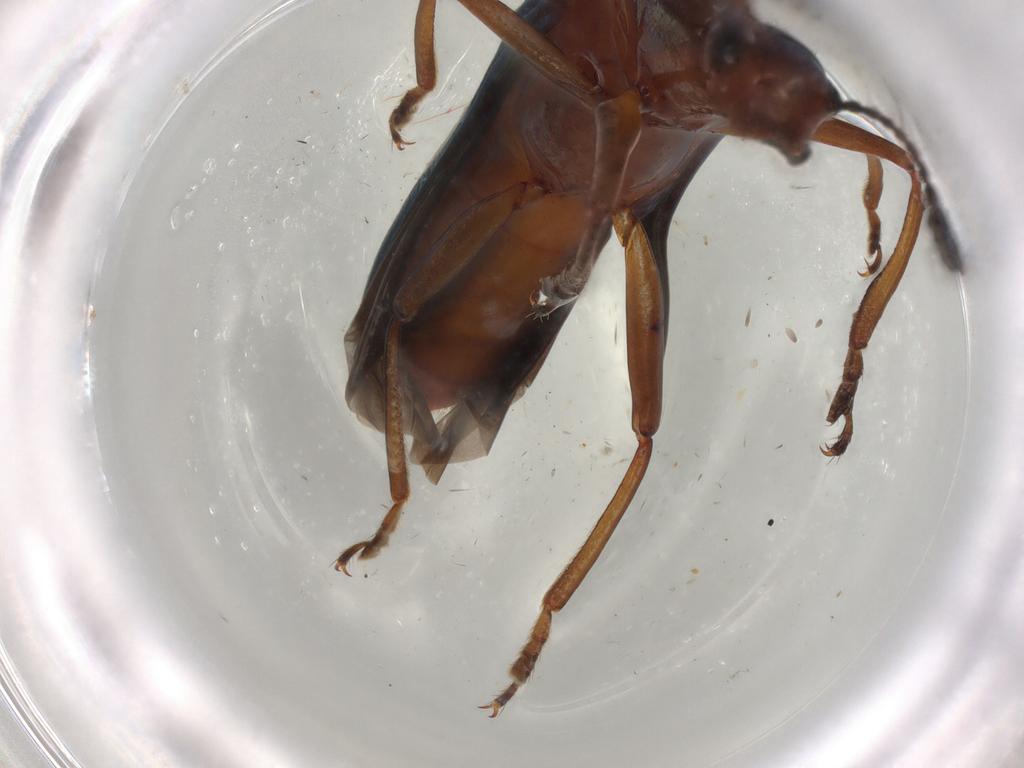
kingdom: Animalia
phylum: Arthropoda
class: Insecta
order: Coleoptera
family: Erotylidae
